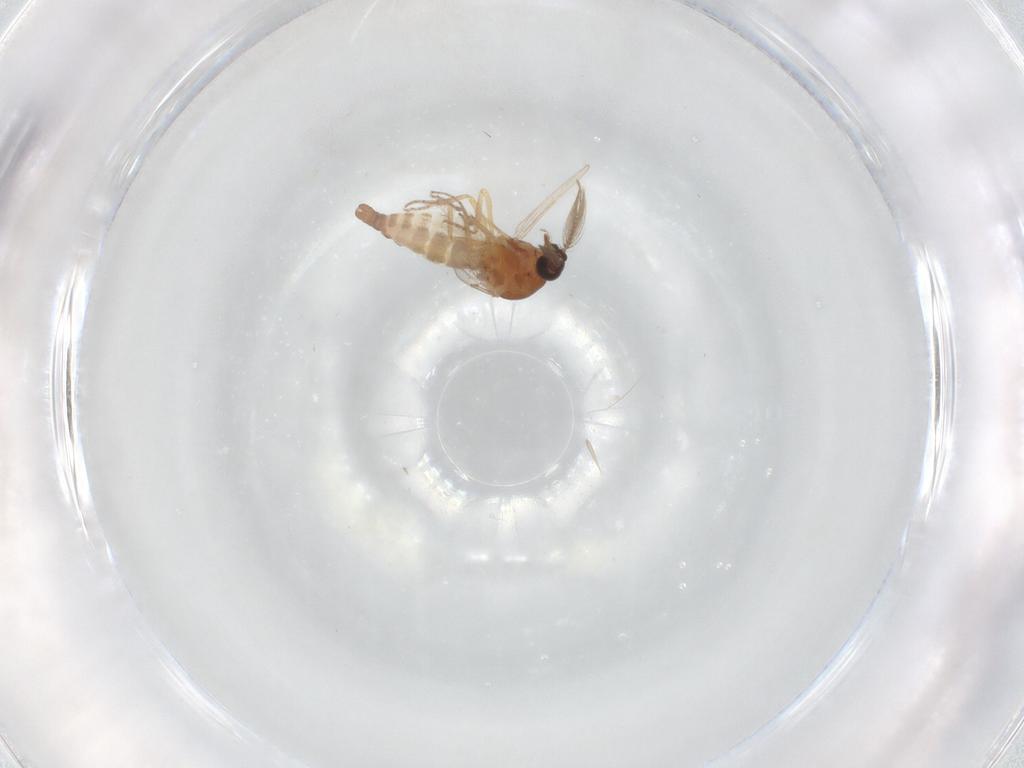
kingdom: Animalia
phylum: Arthropoda
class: Insecta
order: Diptera
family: Ceratopogonidae
